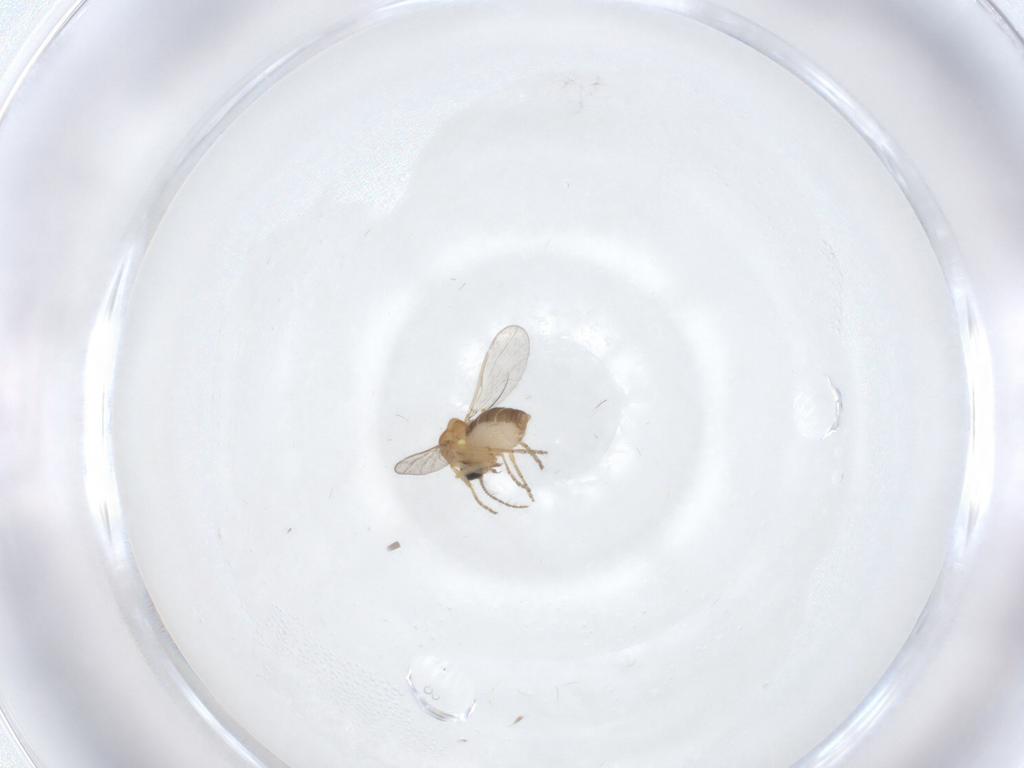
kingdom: Animalia
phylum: Arthropoda
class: Insecta
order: Diptera
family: Ceratopogonidae
